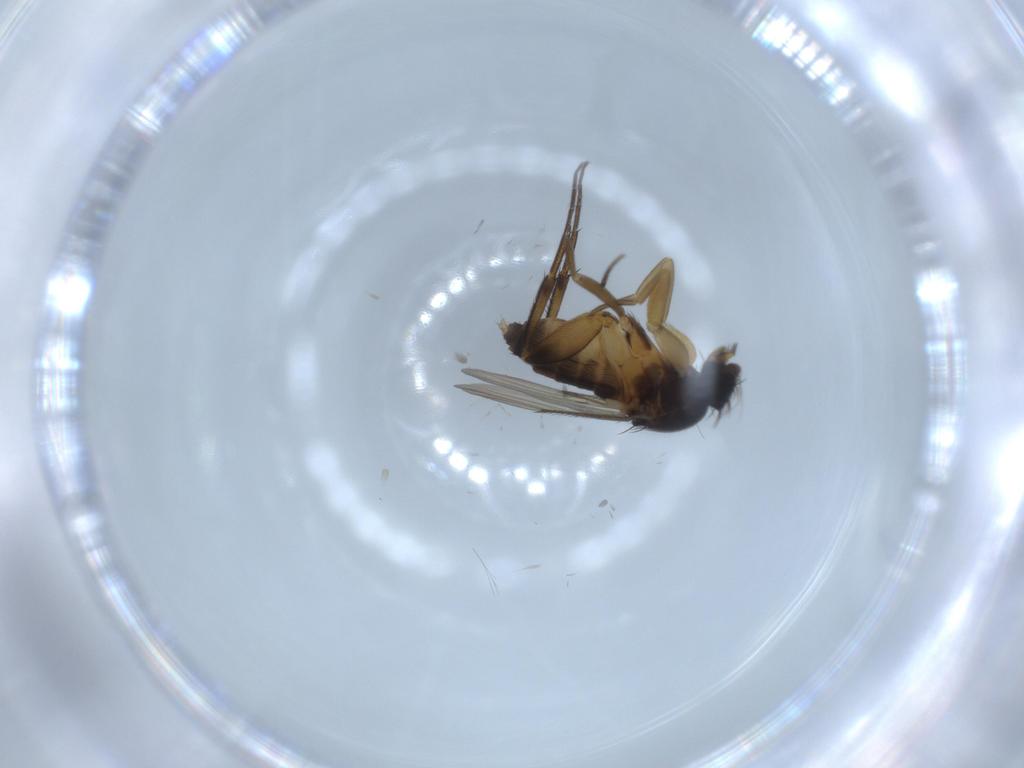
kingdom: Animalia
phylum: Arthropoda
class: Insecta
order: Diptera
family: Phoridae
